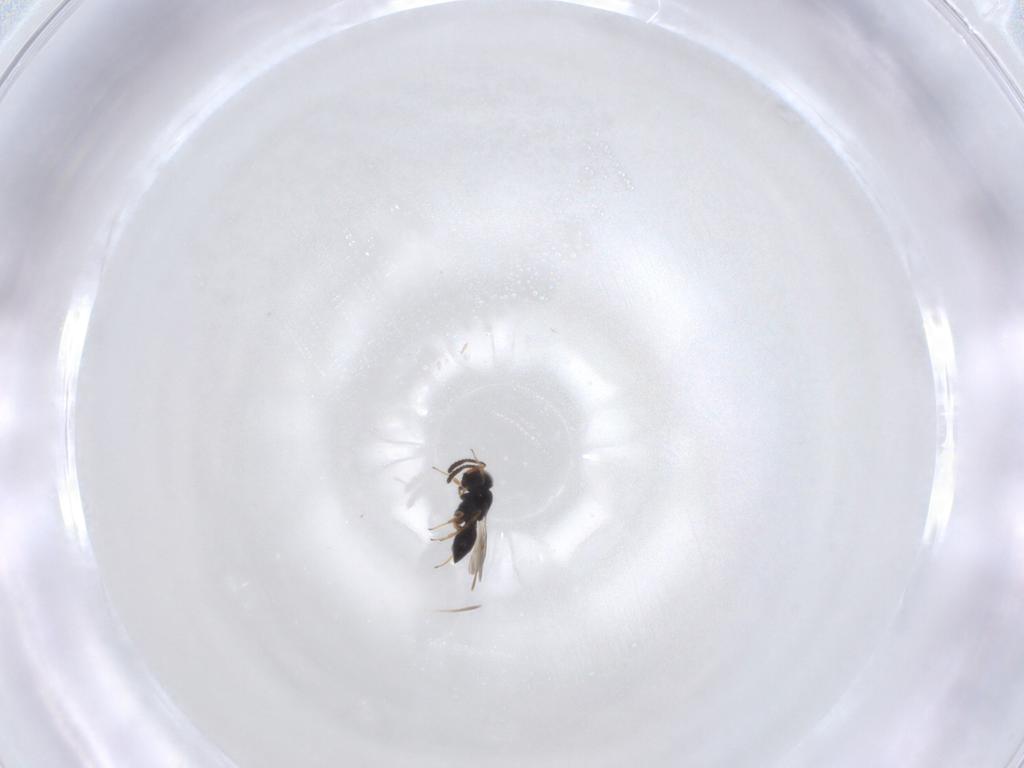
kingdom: Animalia
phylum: Arthropoda
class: Insecta
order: Hymenoptera
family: Scelionidae
